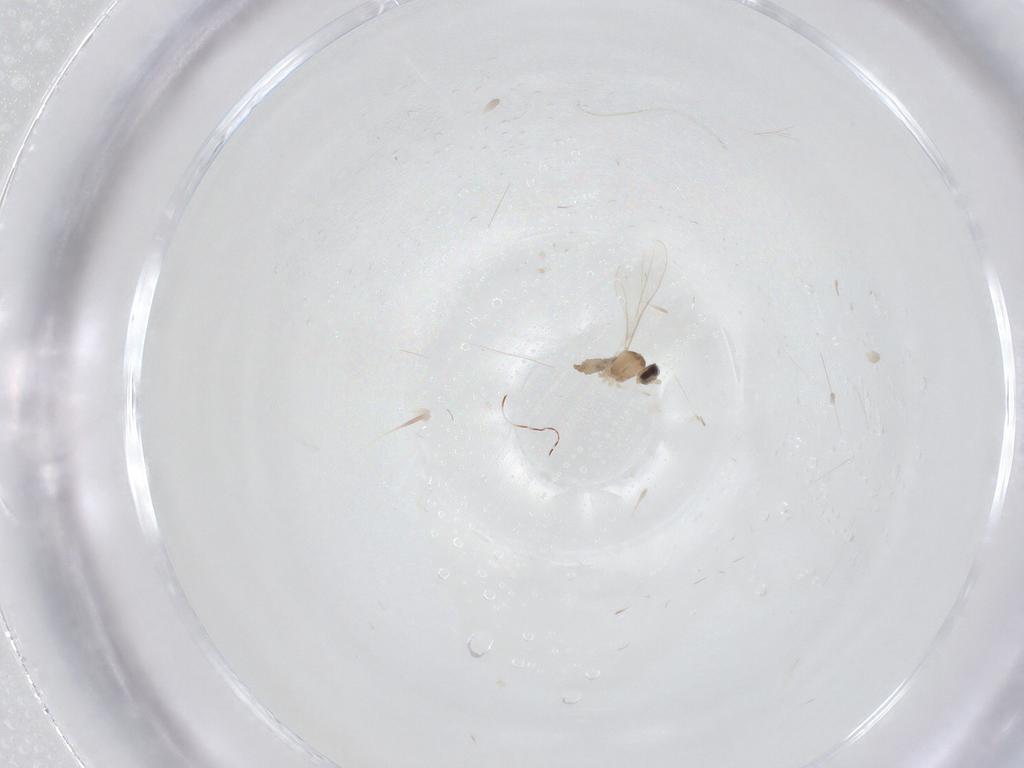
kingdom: Animalia
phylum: Arthropoda
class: Insecta
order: Diptera
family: Cecidomyiidae
